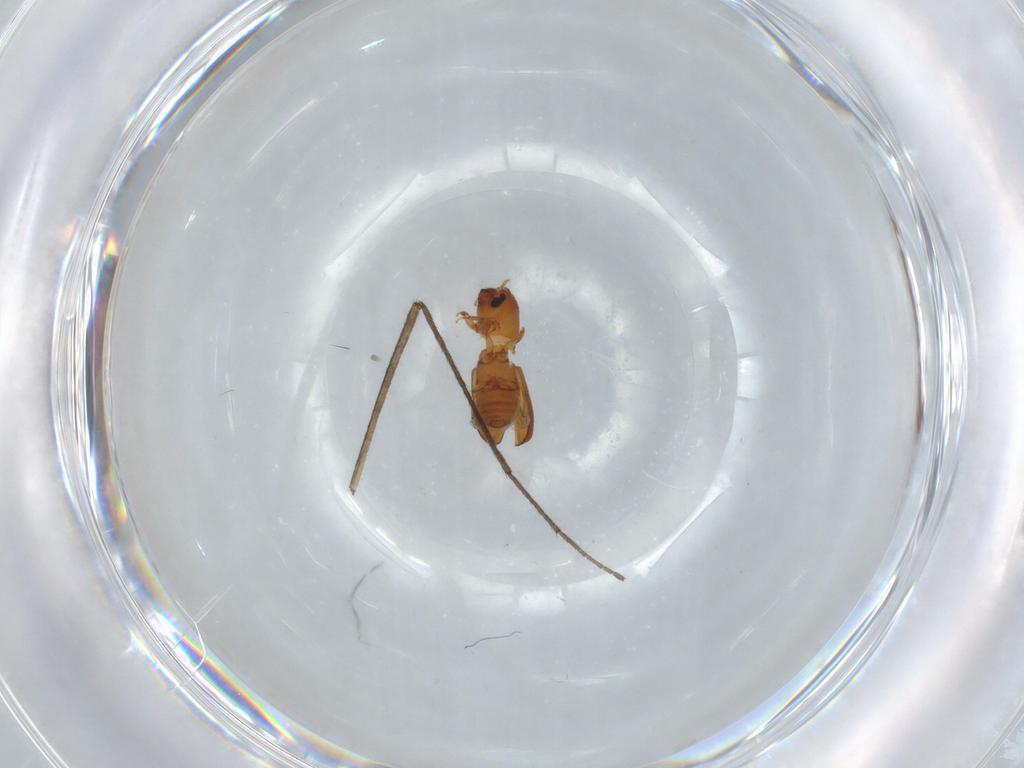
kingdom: Animalia
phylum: Arthropoda
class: Insecta
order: Coleoptera
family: Curculionidae
